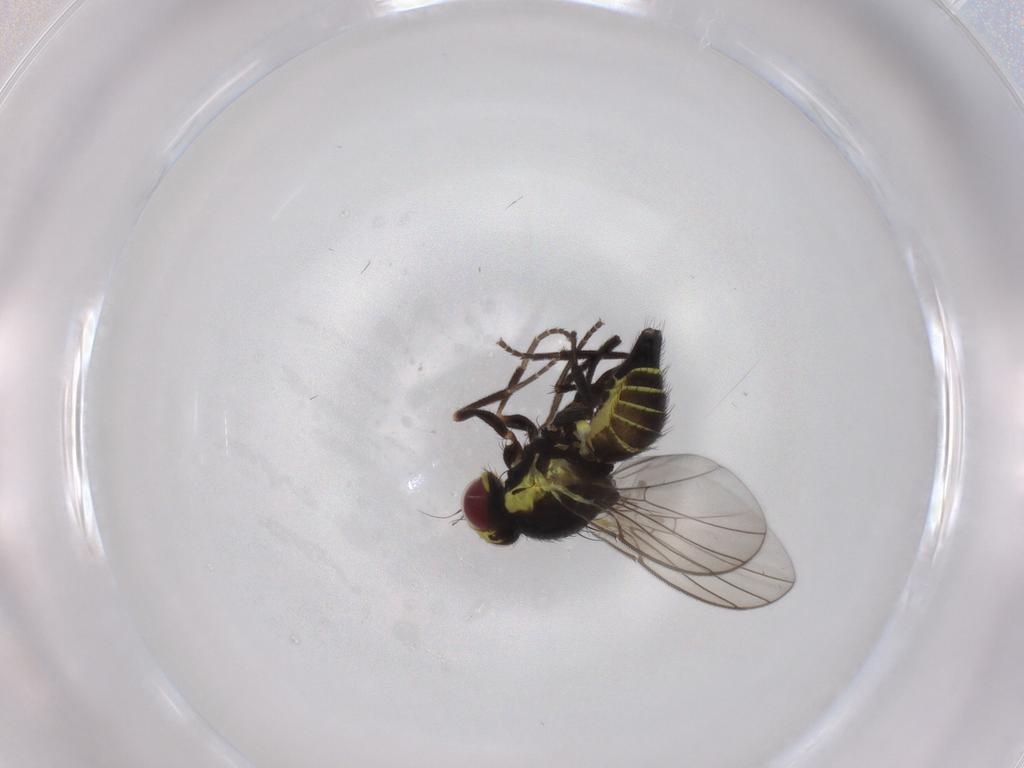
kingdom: Animalia
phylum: Arthropoda
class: Insecta
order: Diptera
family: Agromyzidae
